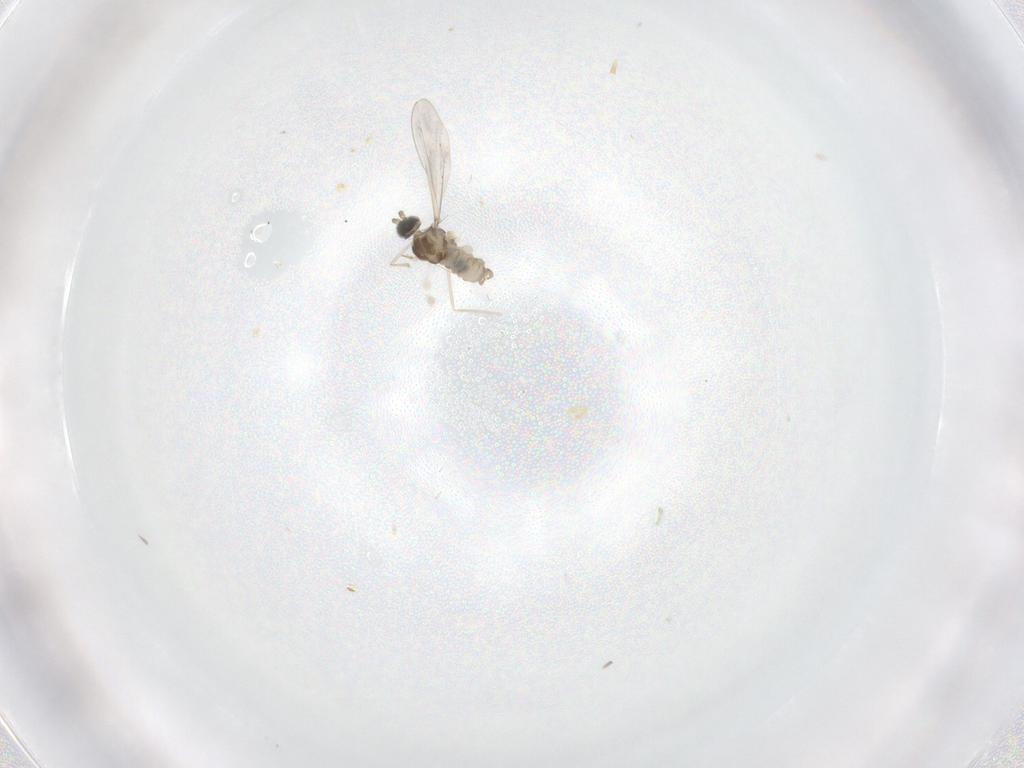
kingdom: Animalia
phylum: Arthropoda
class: Insecta
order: Diptera
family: Cecidomyiidae
